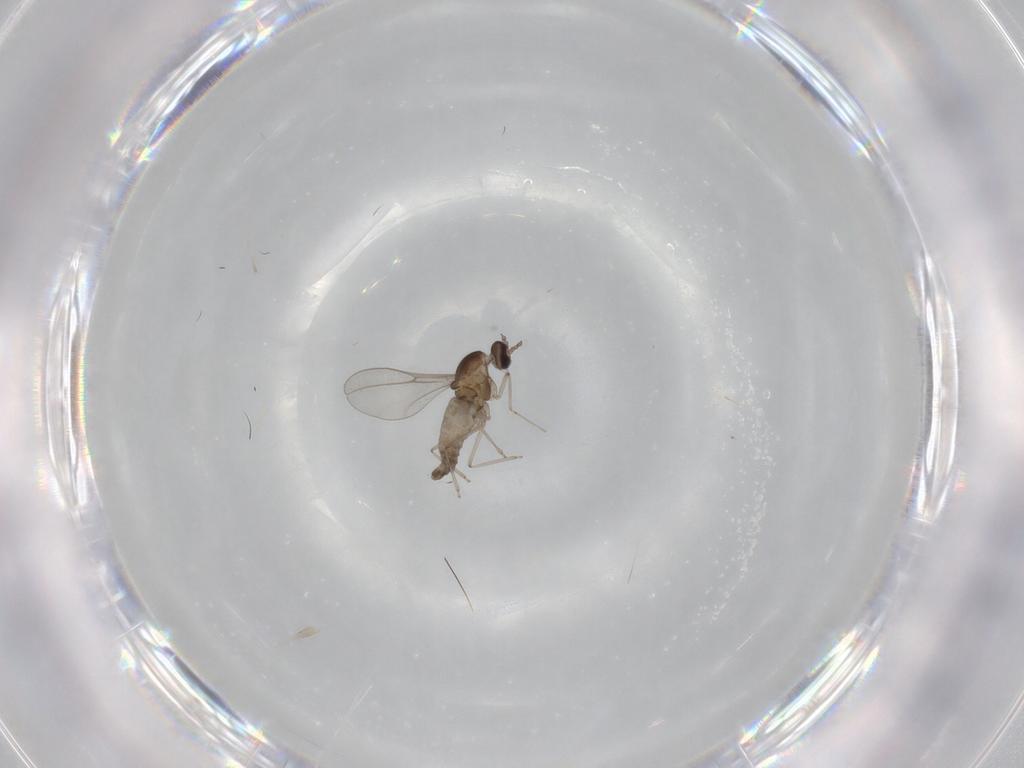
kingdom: Animalia
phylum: Arthropoda
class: Insecta
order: Diptera
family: Cecidomyiidae
